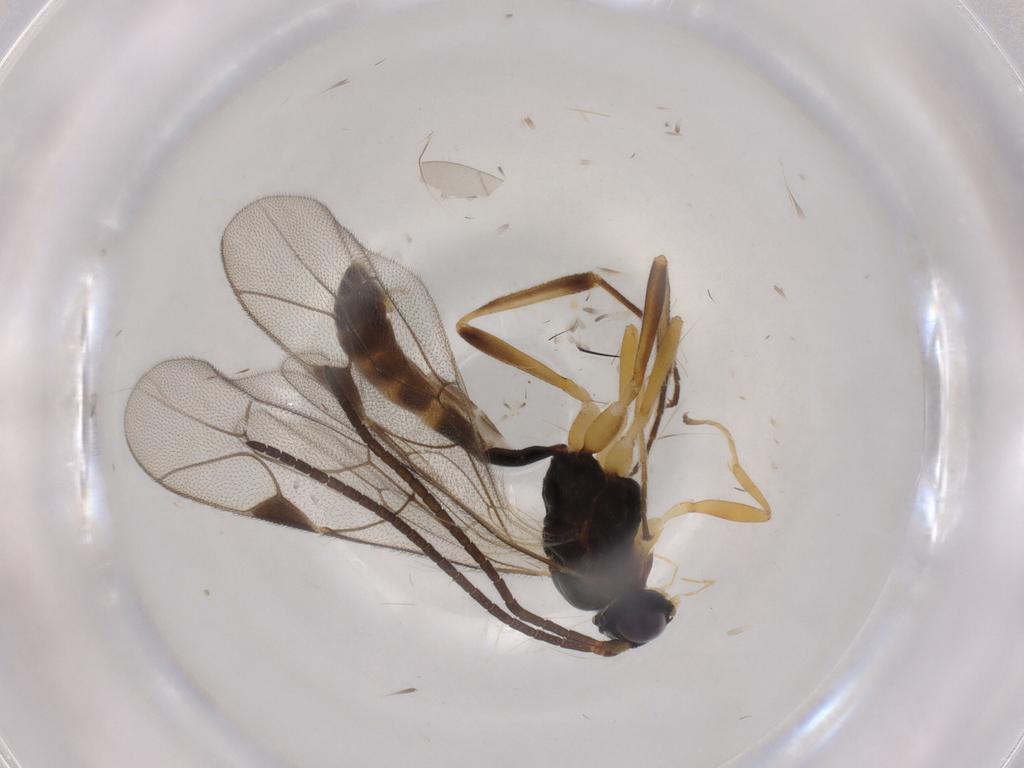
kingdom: Animalia
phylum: Arthropoda
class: Insecta
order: Hymenoptera
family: Ichneumonidae
